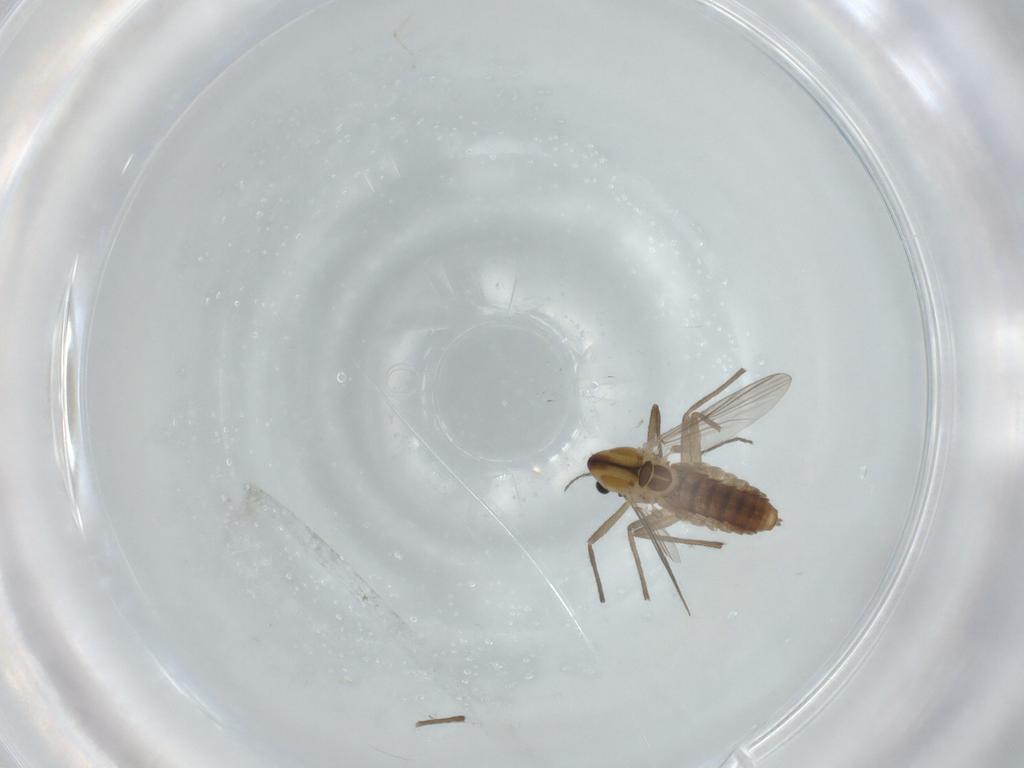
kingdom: Animalia
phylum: Arthropoda
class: Insecta
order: Diptera
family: Chironomidae
